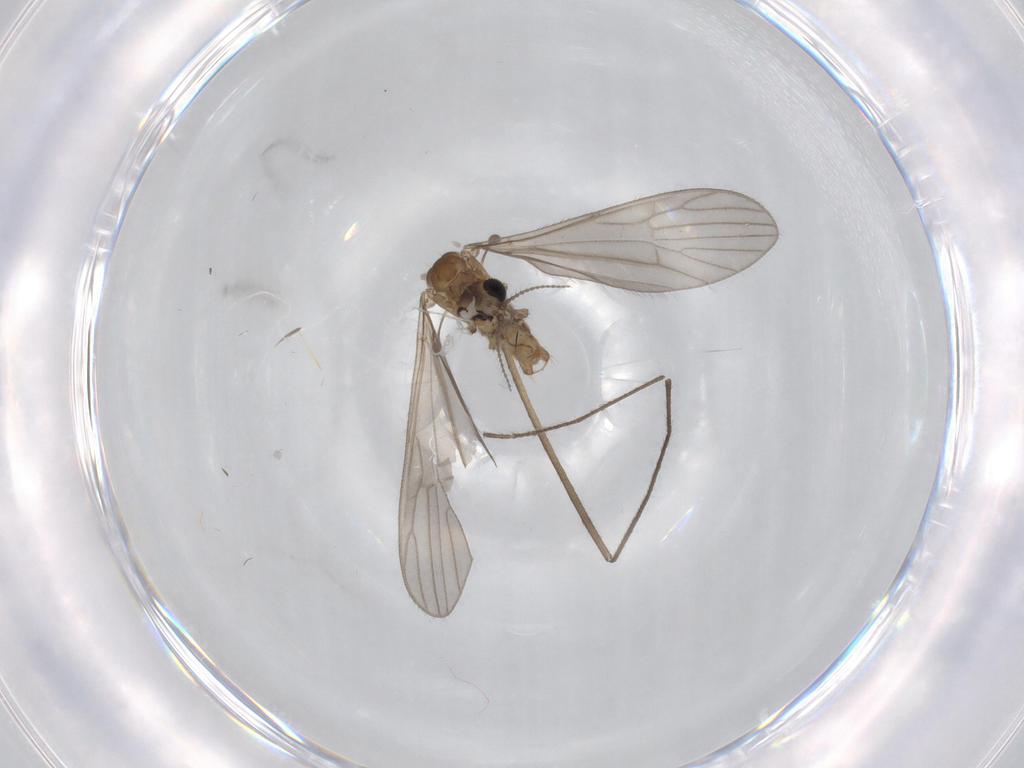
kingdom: Animalia
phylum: Arthropoda
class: Insecta
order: Diptera
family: Limoniidae
